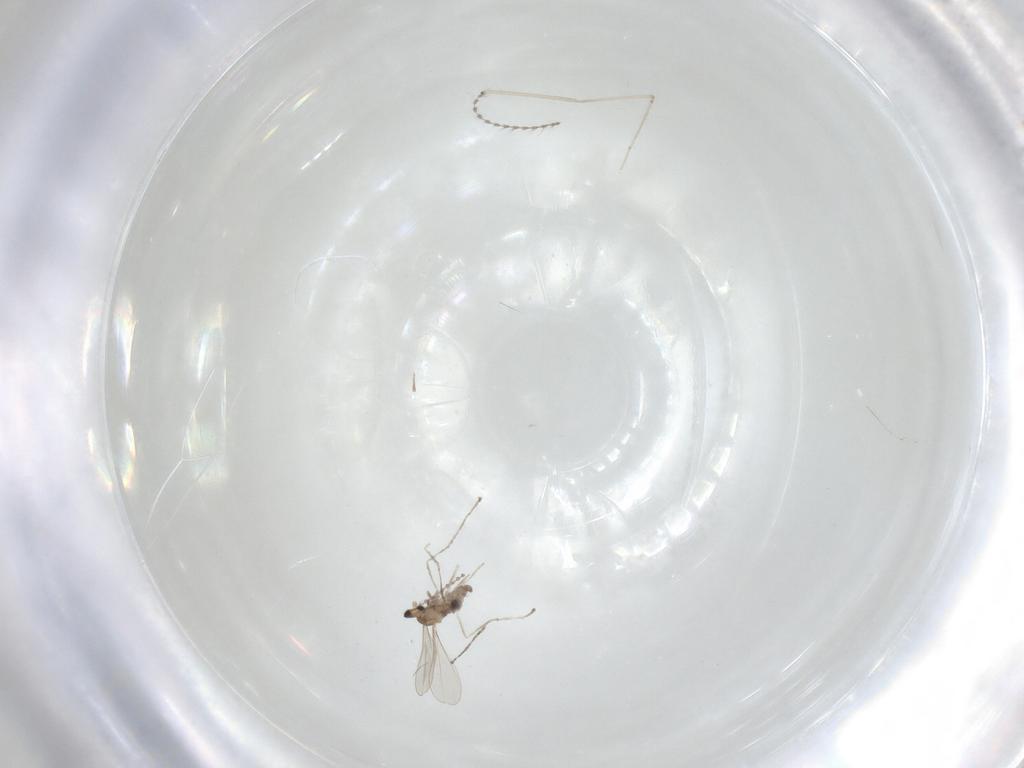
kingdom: Animalia
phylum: Arthropoda
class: Insecta
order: Diptera
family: Cecidomyiidae
